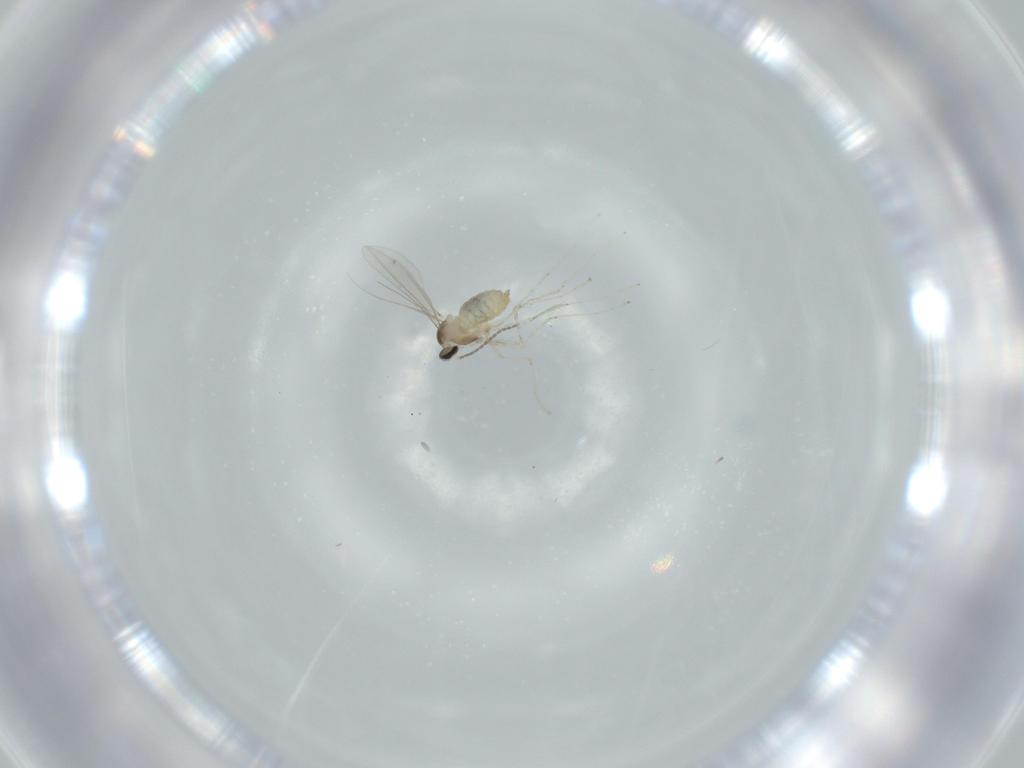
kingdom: Animalia
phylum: Arthropoda
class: Insecta
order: Diptera
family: Cecidomyiidae
